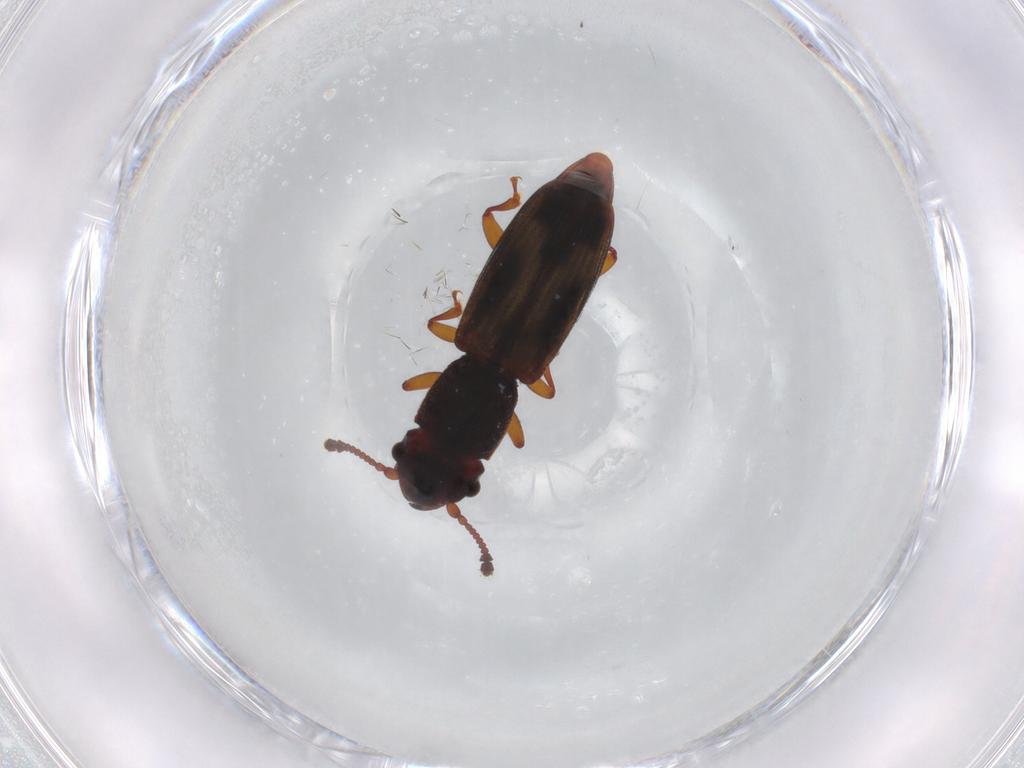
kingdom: Animalia
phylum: Arthropoda
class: Insecta
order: Coleoptera
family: Monotomidae
